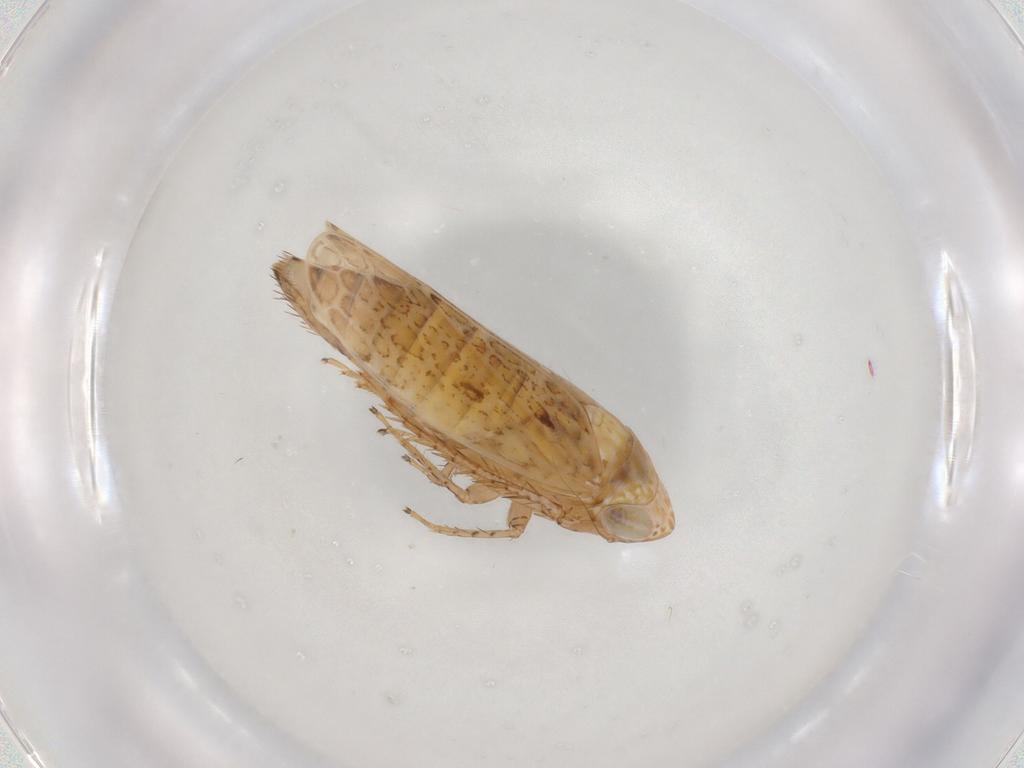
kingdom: Animalia
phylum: Arthropoda
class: Insecta
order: Hemiptera
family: Cicadellidae
